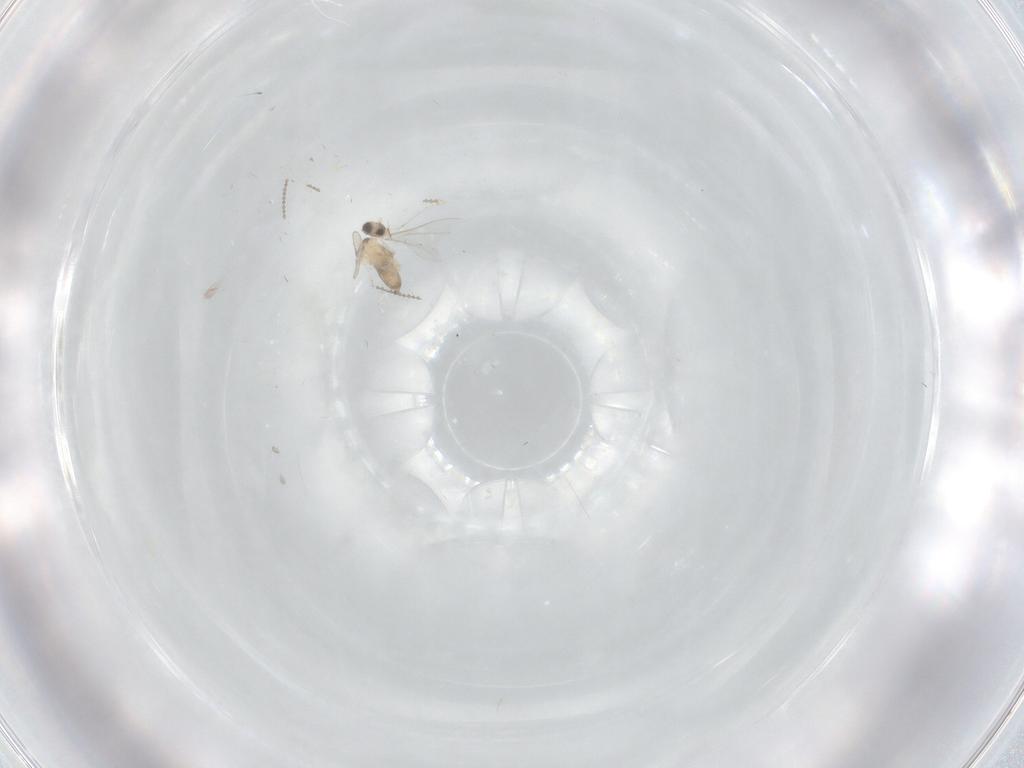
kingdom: Animalia
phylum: Arthropoda
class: Insecta
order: Diptera
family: Cecidomyiidae
